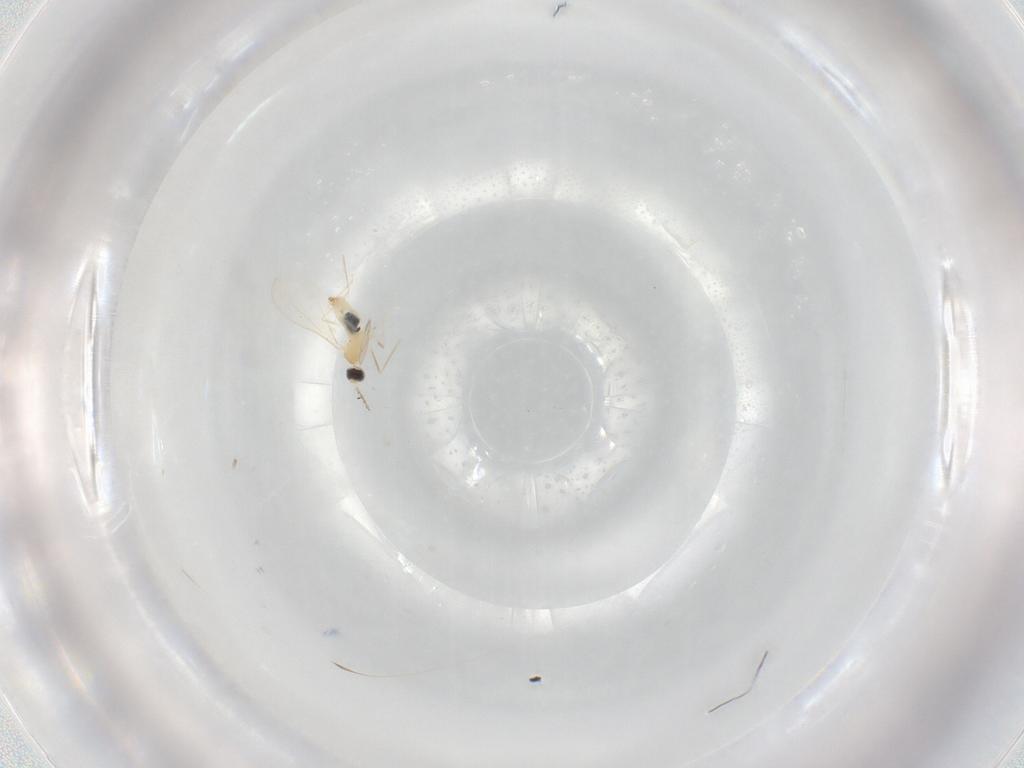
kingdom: Animalia
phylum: Arthropoda
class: Insecta
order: Diptera
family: Cecidomyiidae
